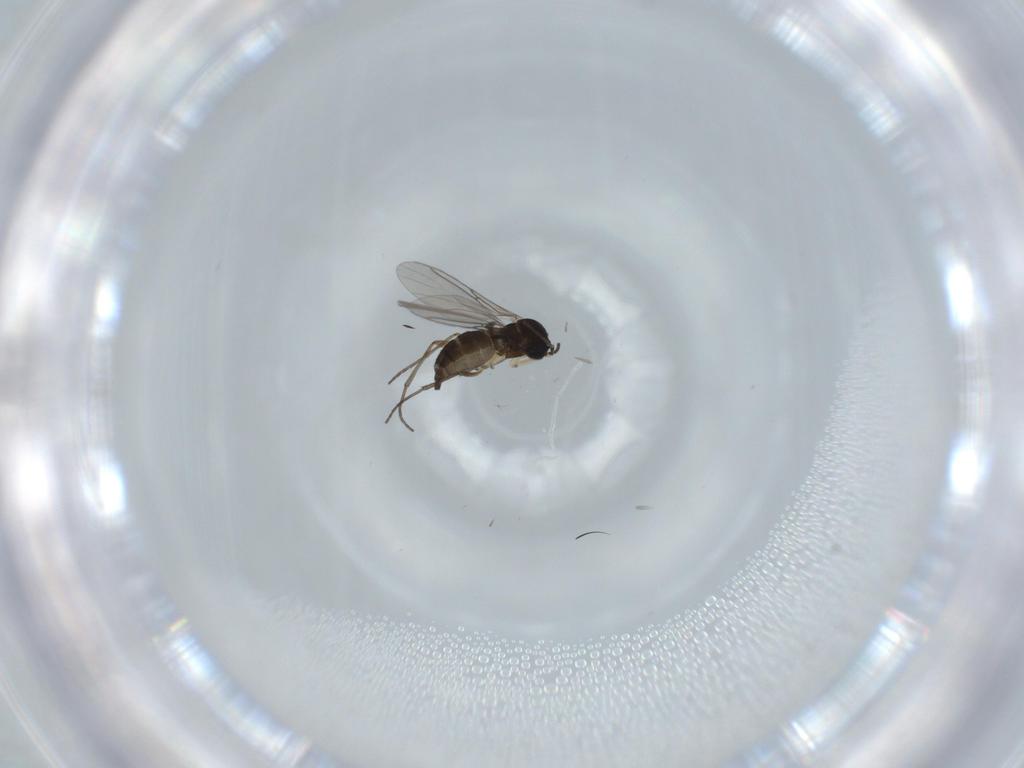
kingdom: Animalia
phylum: Arthropoda
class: Insecta
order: Diptera
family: Sciaridae
